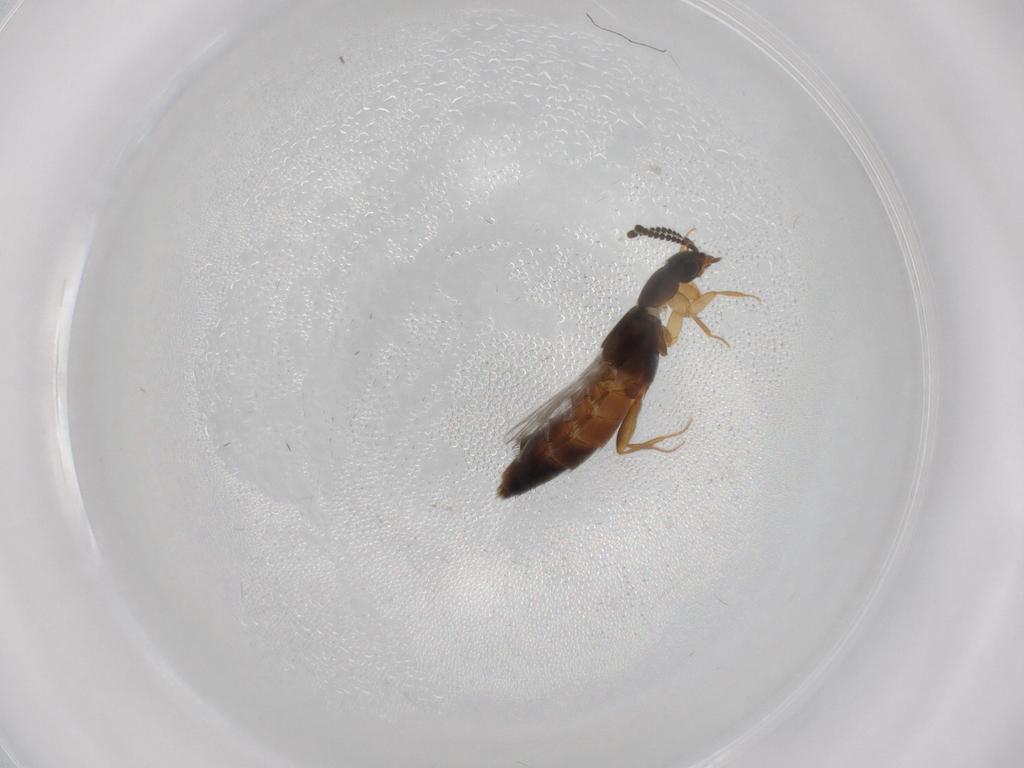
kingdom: Animalia
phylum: Arthropoda
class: Insecta
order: Coleoptera
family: Staphylinidae
